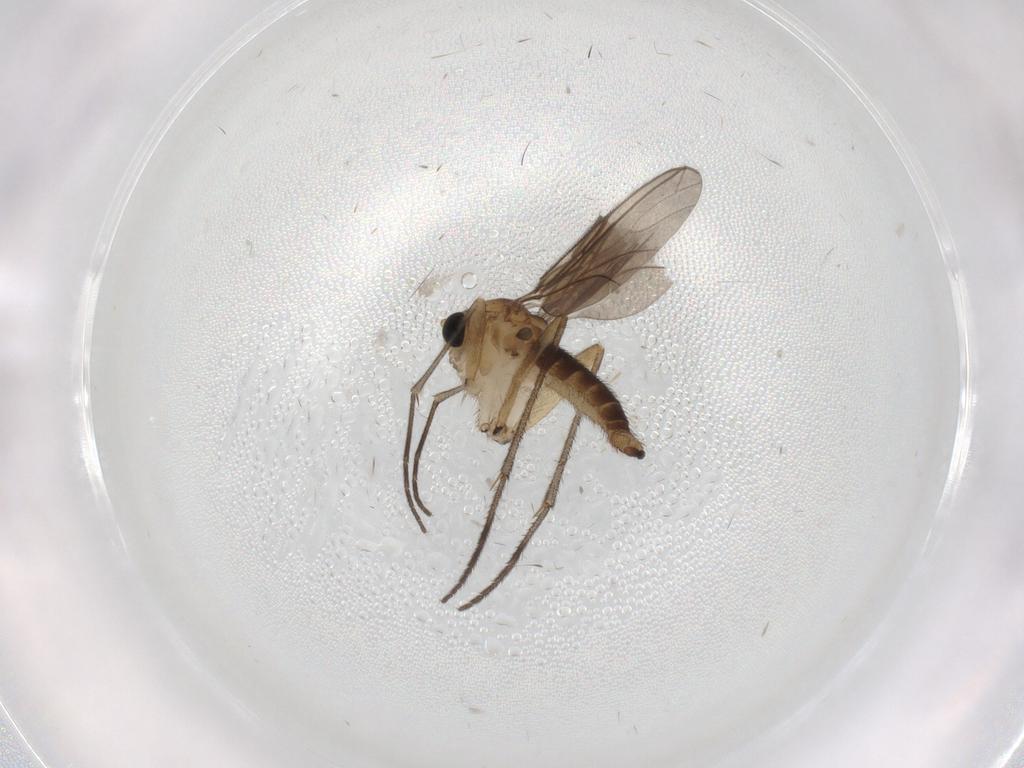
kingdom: Animalia
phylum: Arthropoda
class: Insecta
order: Diptera
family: Sciaridae
